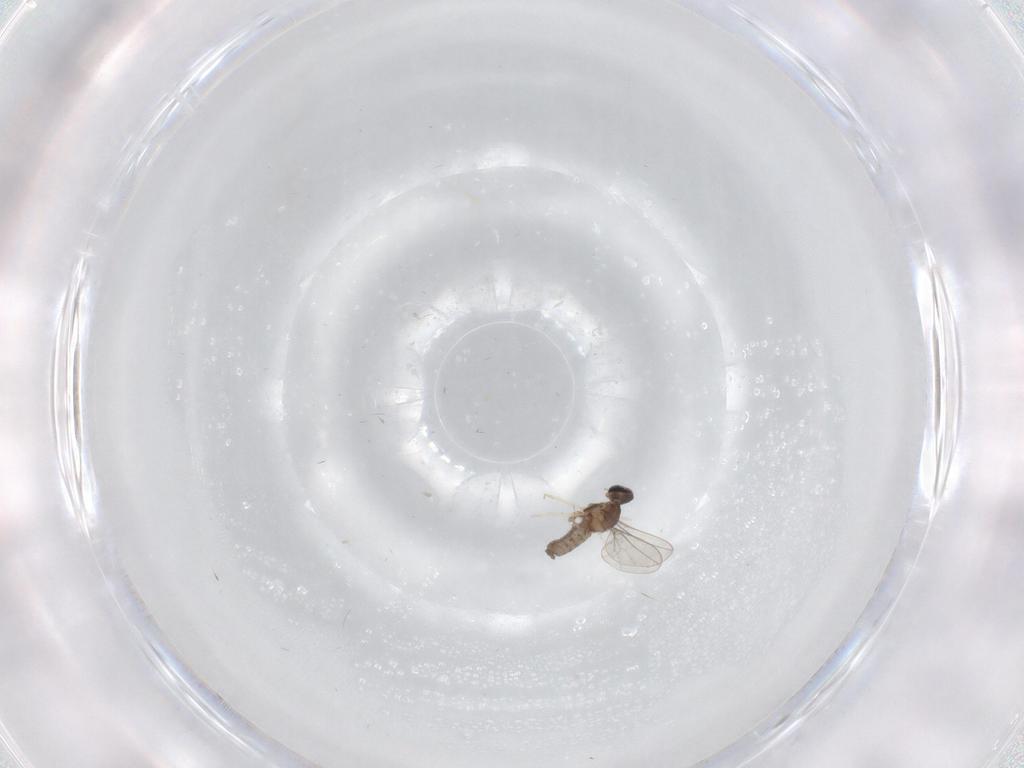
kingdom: Animalia
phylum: Arthropoda
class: Insecta
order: Diptera
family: Cecidomyiidae
